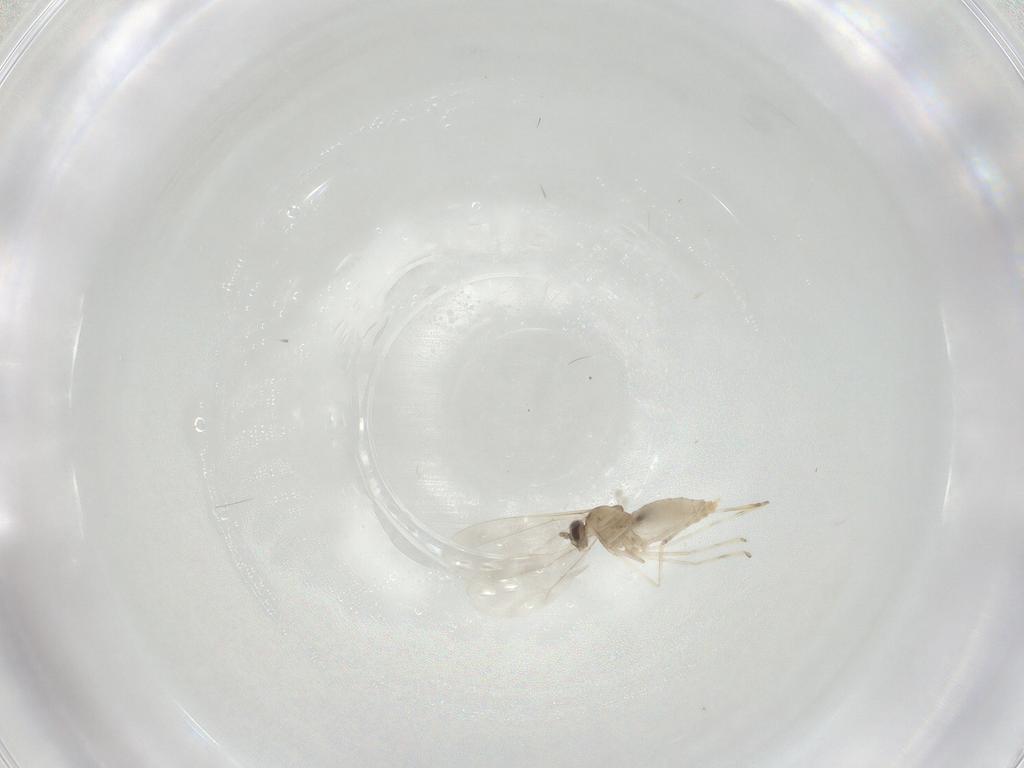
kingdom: Animalia
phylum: Arthropoda
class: Insecta
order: Diptera
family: Cecidomyiidae
